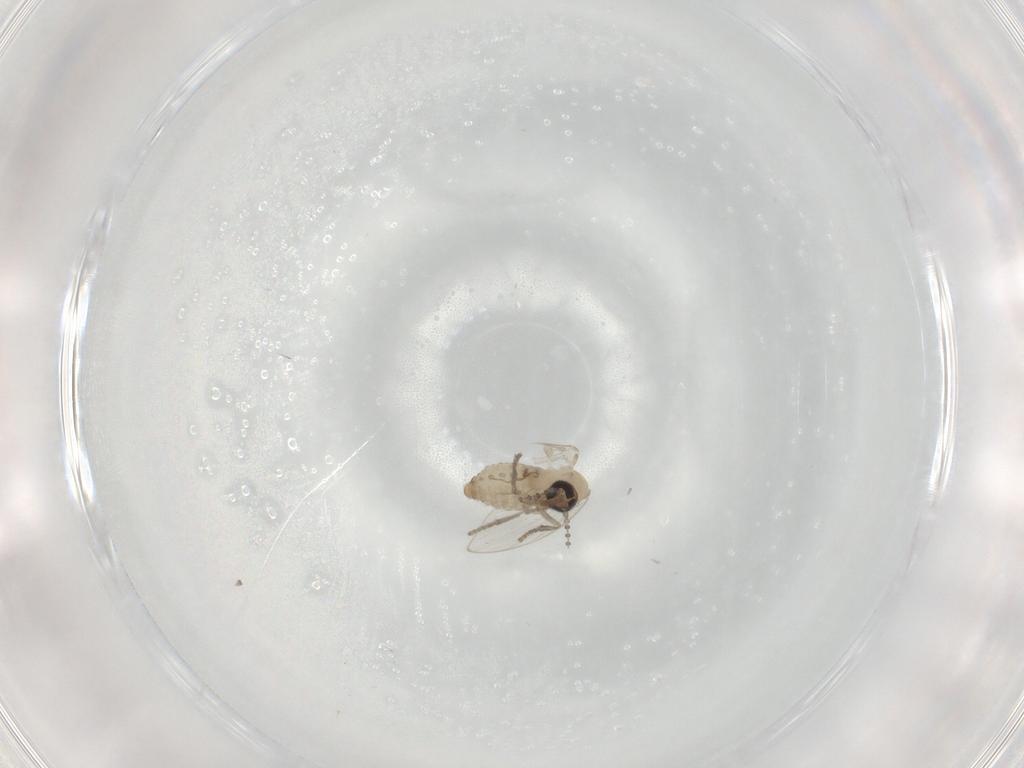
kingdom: Animalia
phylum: Arthropoda
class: Insecta
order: Diptera
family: Psychodidae
